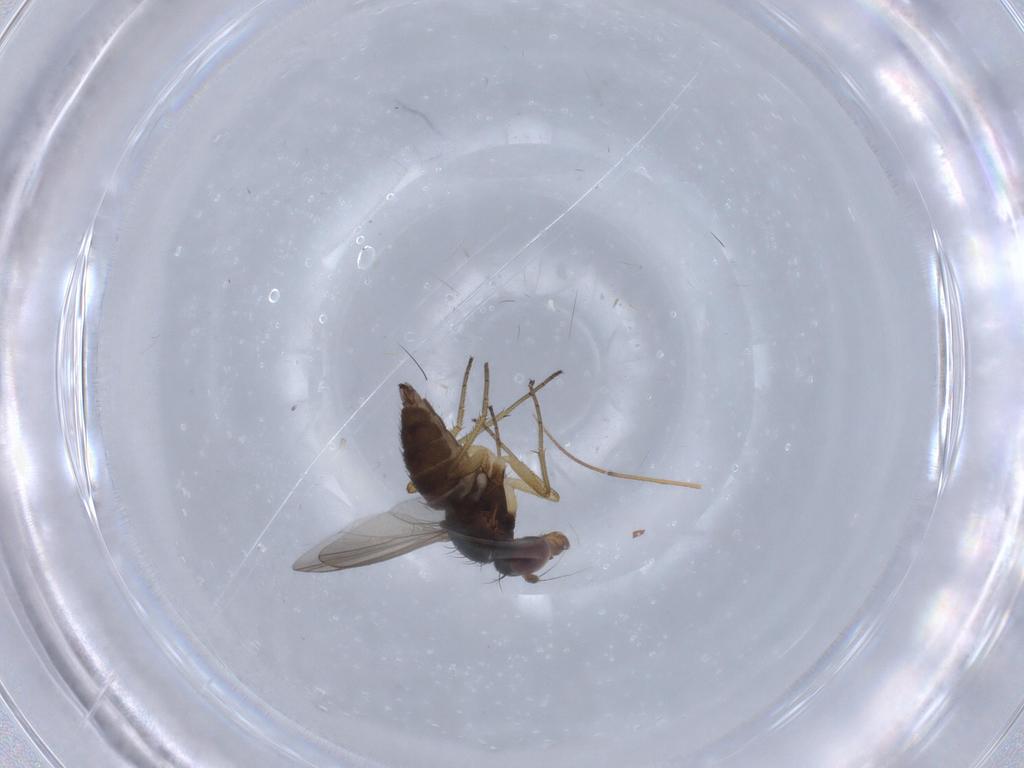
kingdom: Animalia
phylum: Arthropoda
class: Insecta
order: Diptera
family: Dolichopodidae
